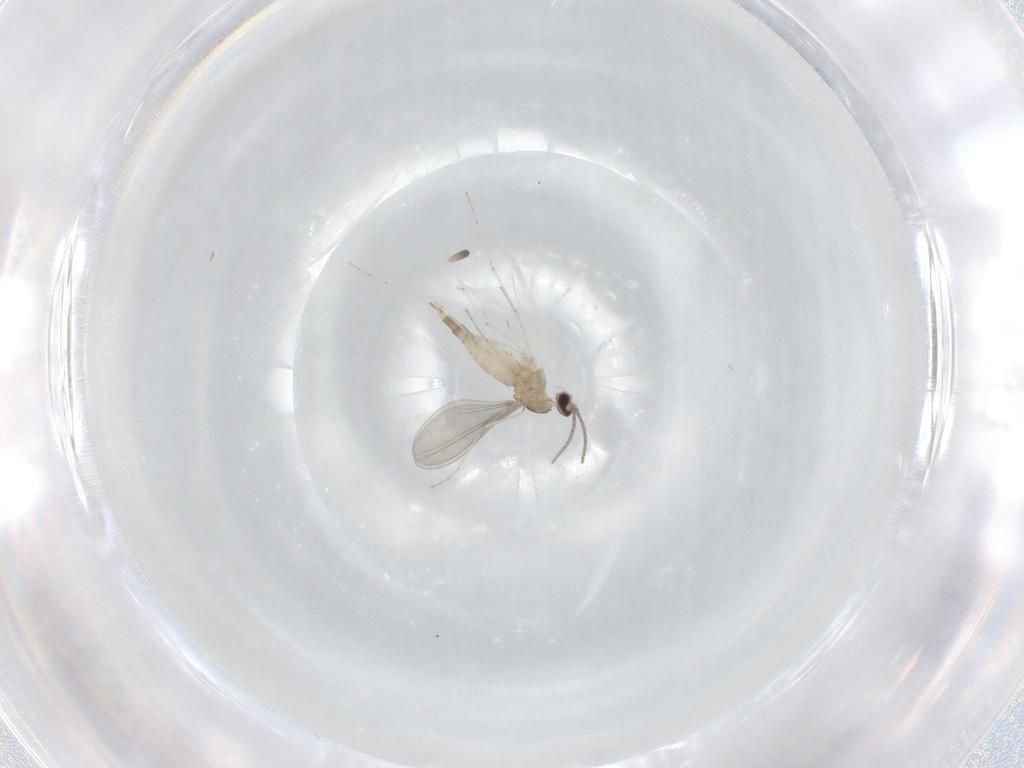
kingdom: Animalia
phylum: Arthropoda
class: Insecta
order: Diptera
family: Cecidomyiidae
